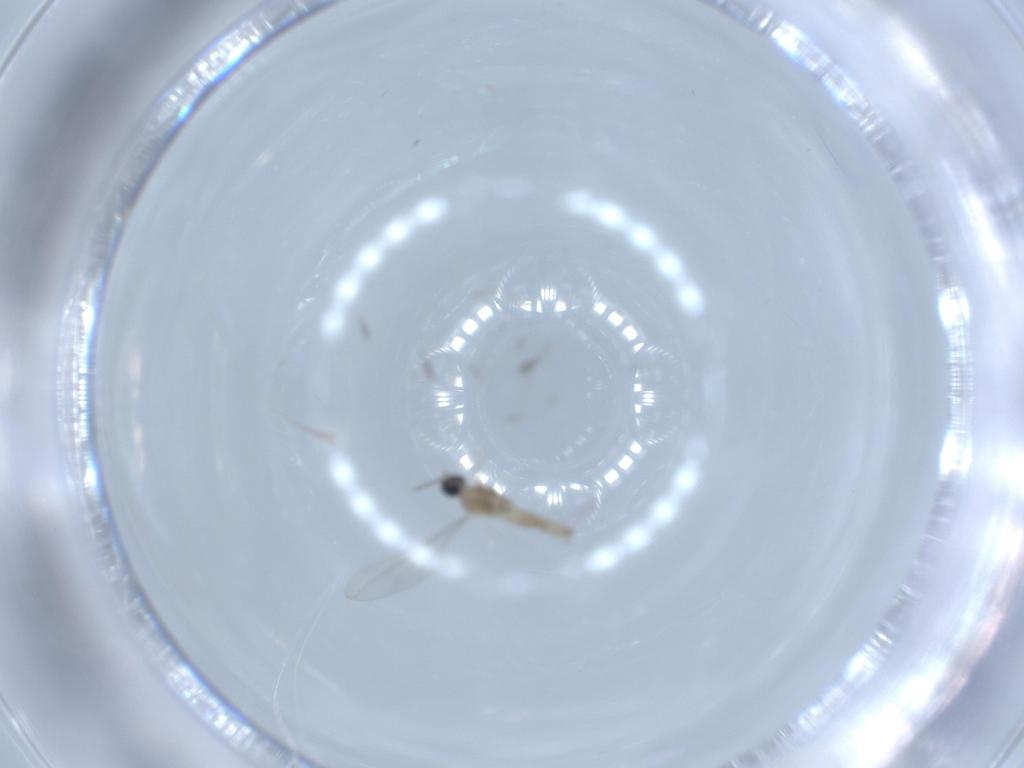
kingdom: Animalia
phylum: Arthropoda
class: Insecta
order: Diptera
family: Cecidomyiidae
